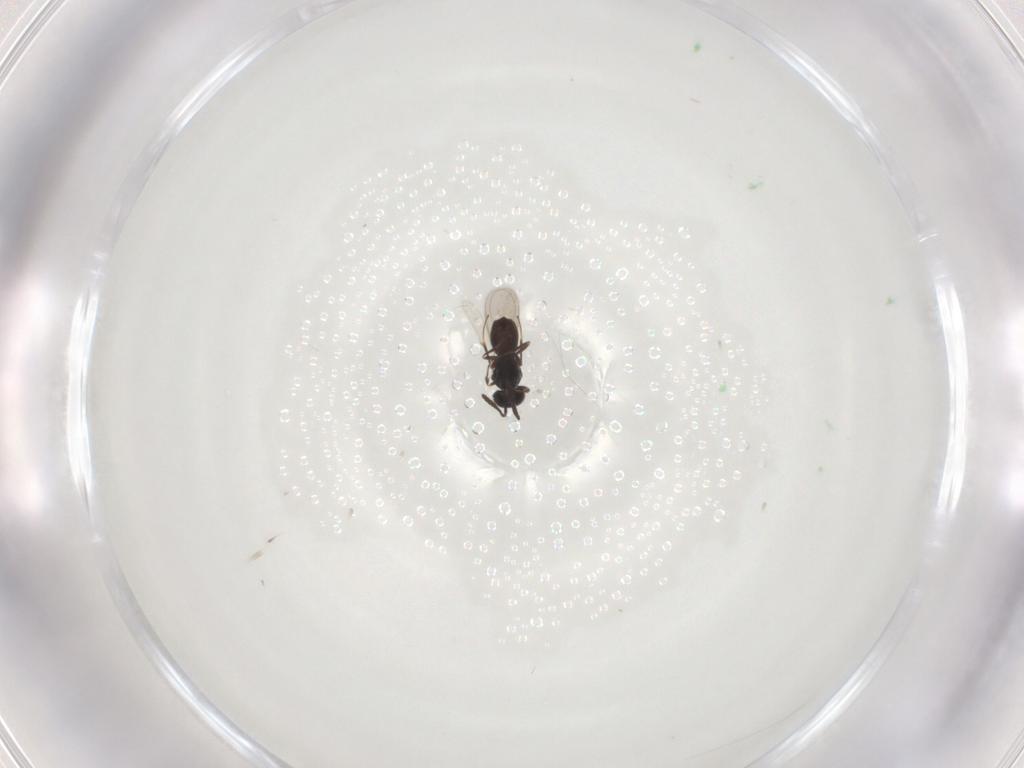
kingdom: Animalia
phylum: Arthropoda
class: Insecta
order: Hymenoptera
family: Scelionidae
